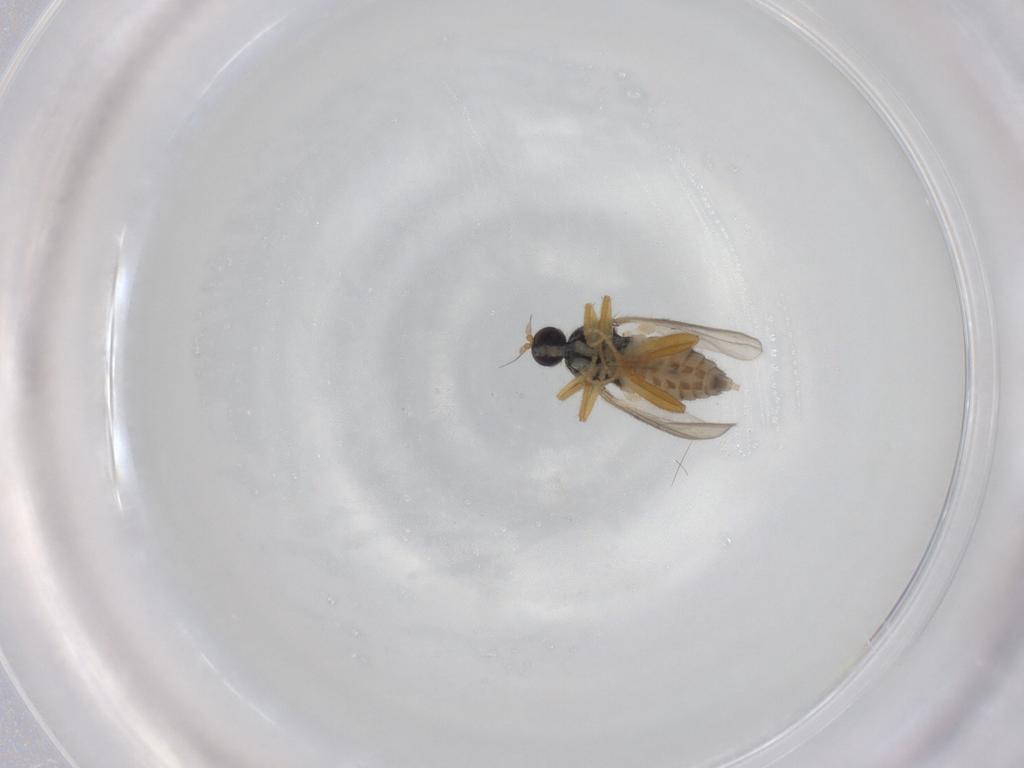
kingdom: Animalia
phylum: Arthropoda
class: Insecta
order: Diptera
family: Hybotidae
